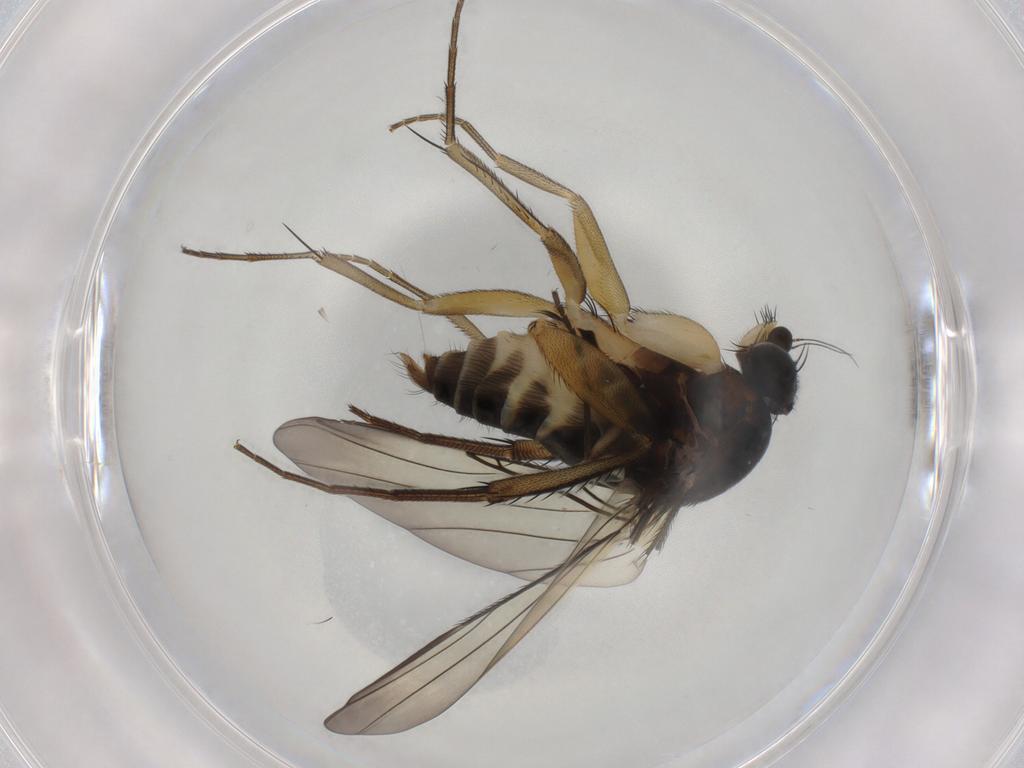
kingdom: Animalia
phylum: Arthropoda
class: Insecta
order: Diptera
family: Phoridae
